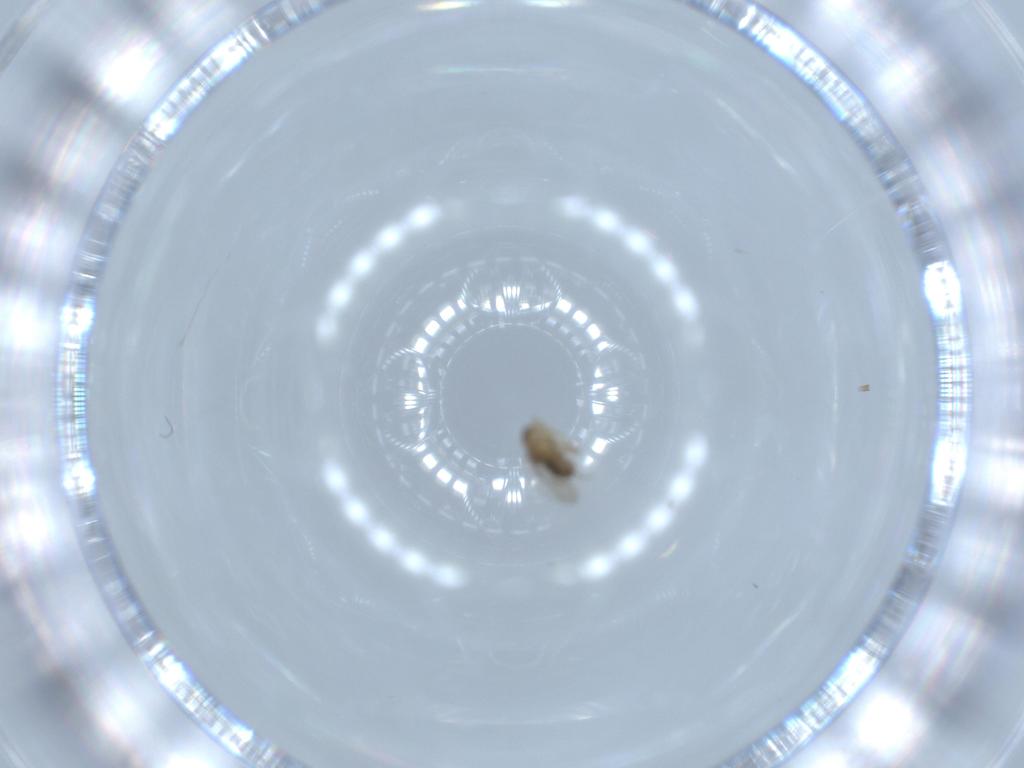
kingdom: Animalia
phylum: Arthropoda
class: Insecta
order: Diptera
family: Phoridae
